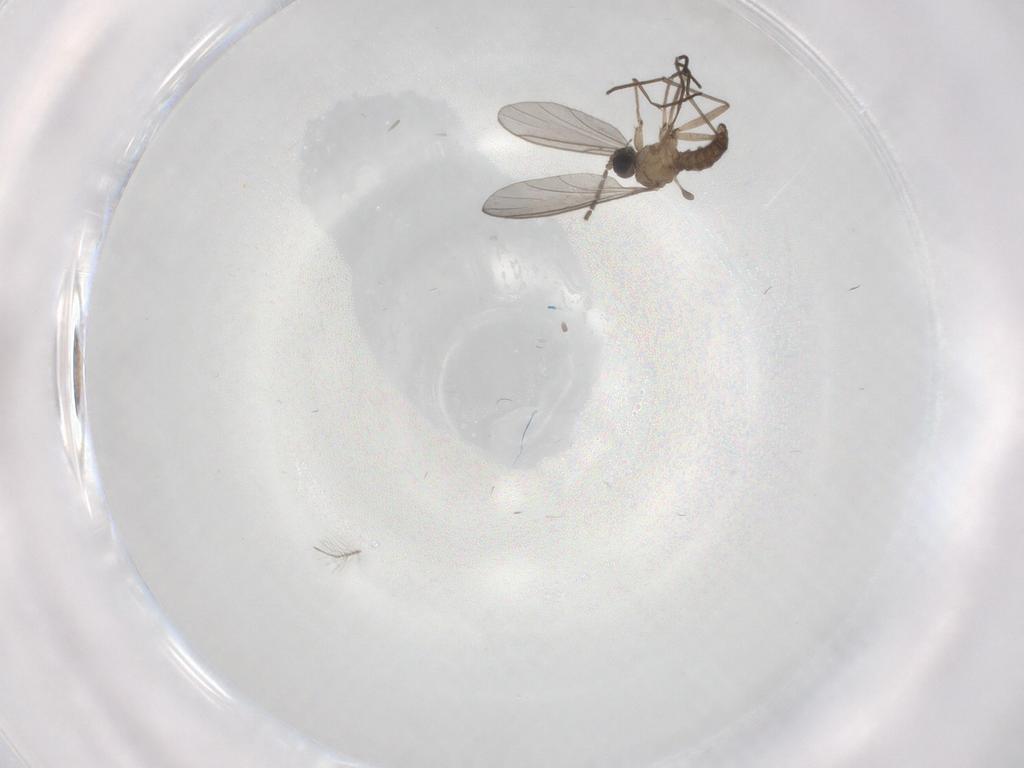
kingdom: Animalia
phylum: Arthropoda
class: Insecta
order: Diptera
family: Sciaridae
